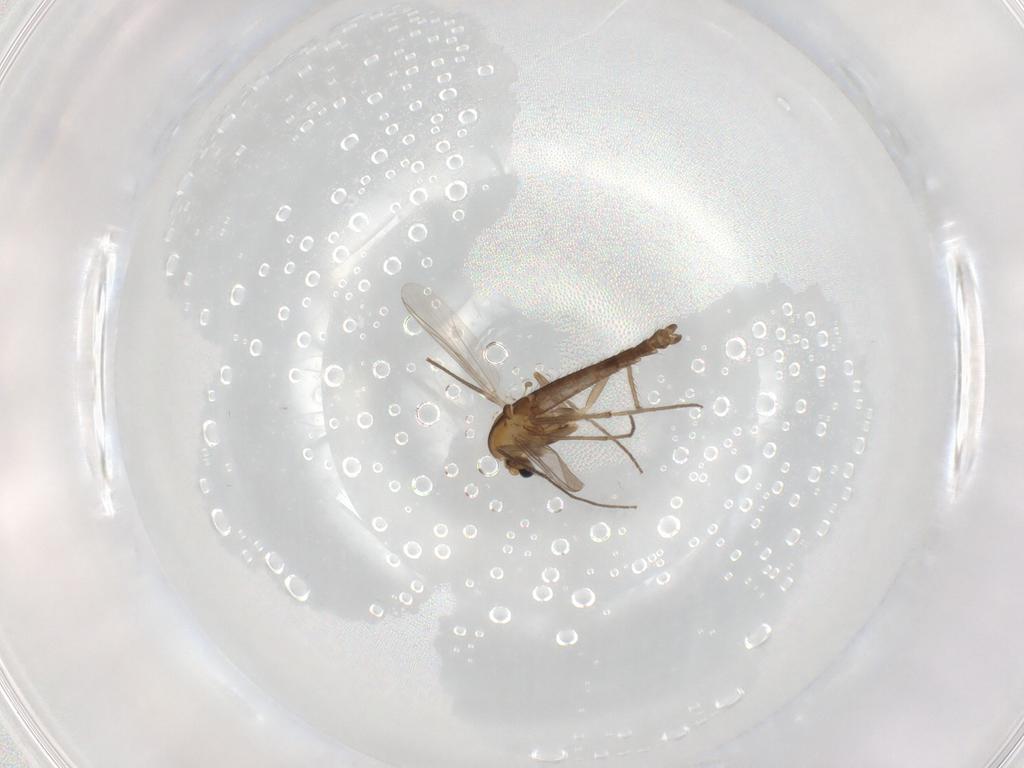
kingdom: Animalia
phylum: Arthropoda
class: Insecta
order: Diptera
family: Chironomidae
